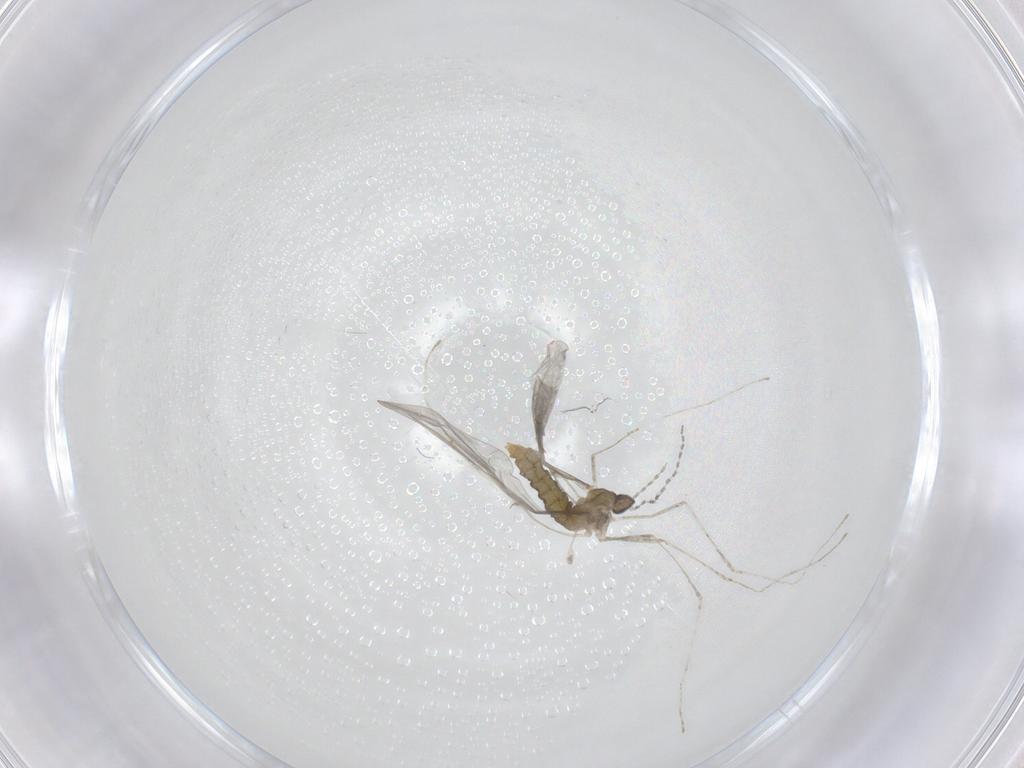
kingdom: Animalia
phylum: Arthropoda
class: Insecta
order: Diptera
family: Cecidomyiidae
